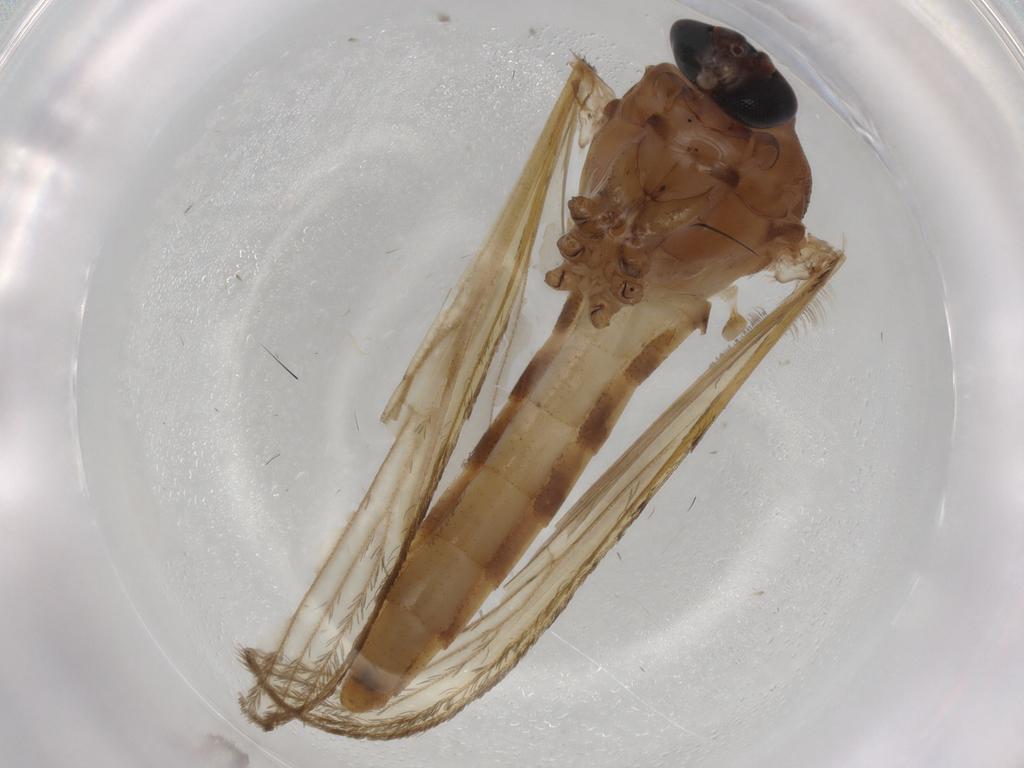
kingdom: Animalia
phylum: Arthropoda
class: Insecta
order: Diptera
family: Culicidae
